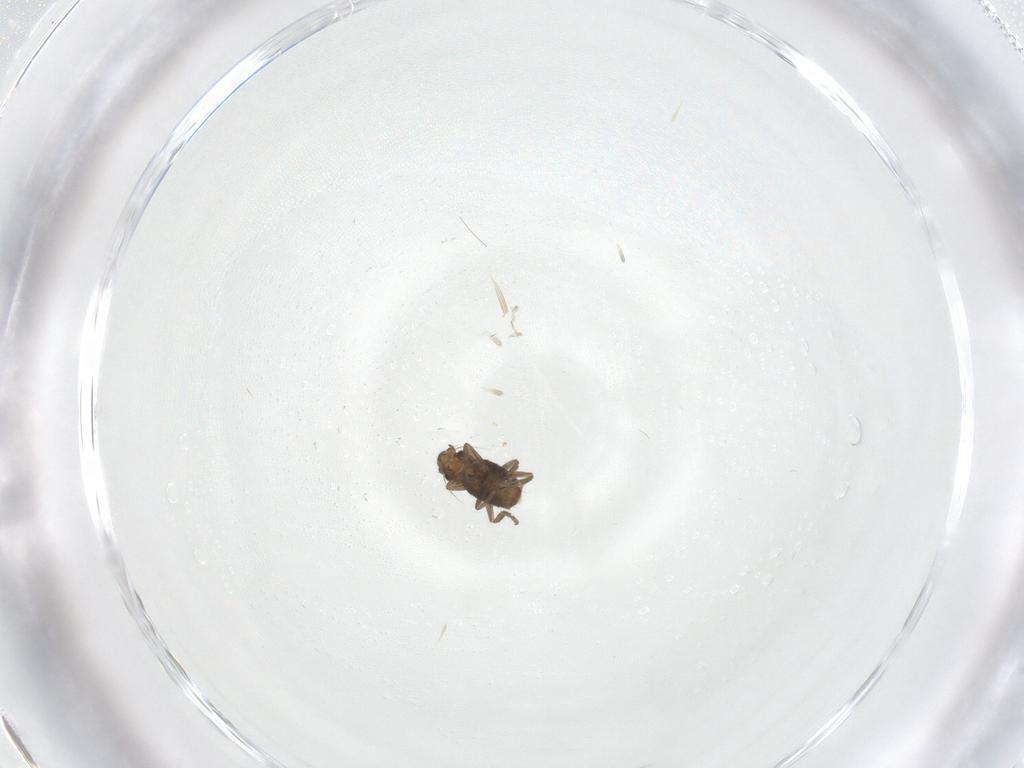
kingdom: Animalia
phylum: Arthropoda
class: Insecta
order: Diptera
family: Phoridae
